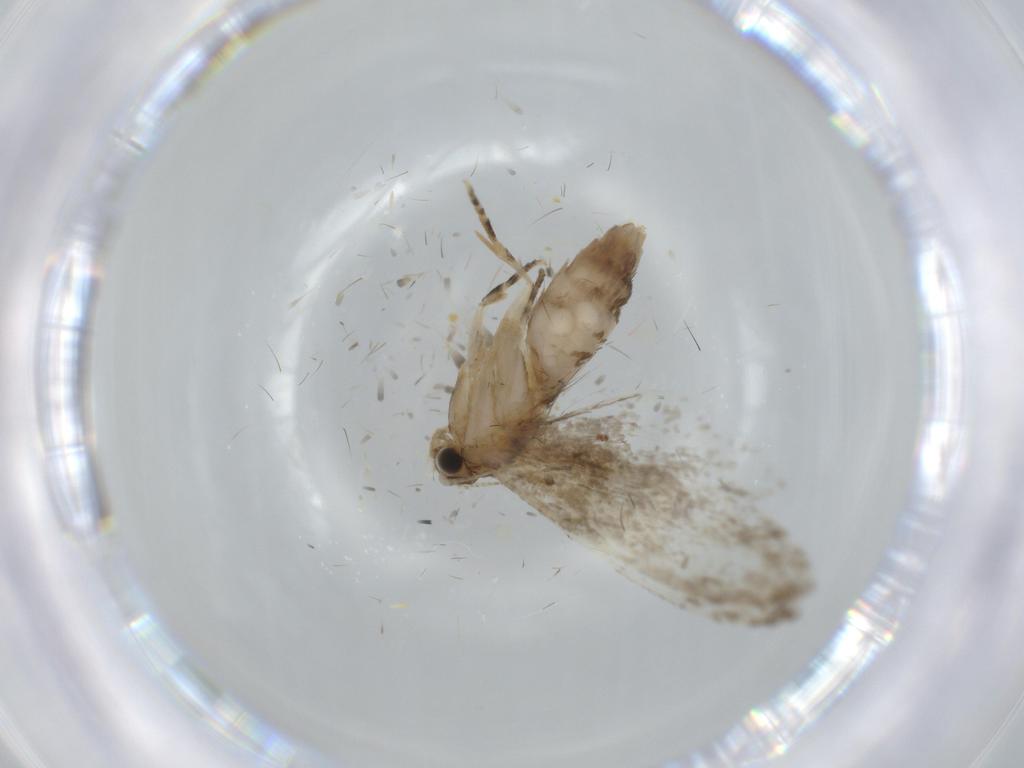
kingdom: Animalia
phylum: Arthropoda
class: Insecta
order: Lepidoptera
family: Tineidae
